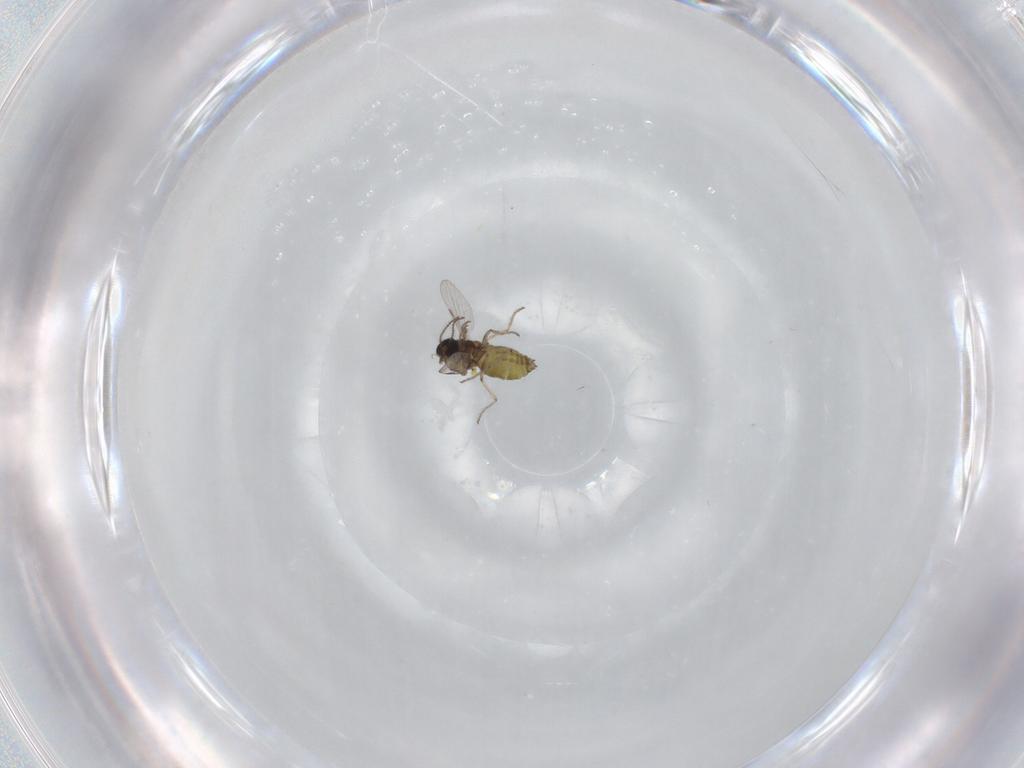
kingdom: Animalia
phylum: Arthropoda
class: Insecta
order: Diptera
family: Ceratopogonidae
